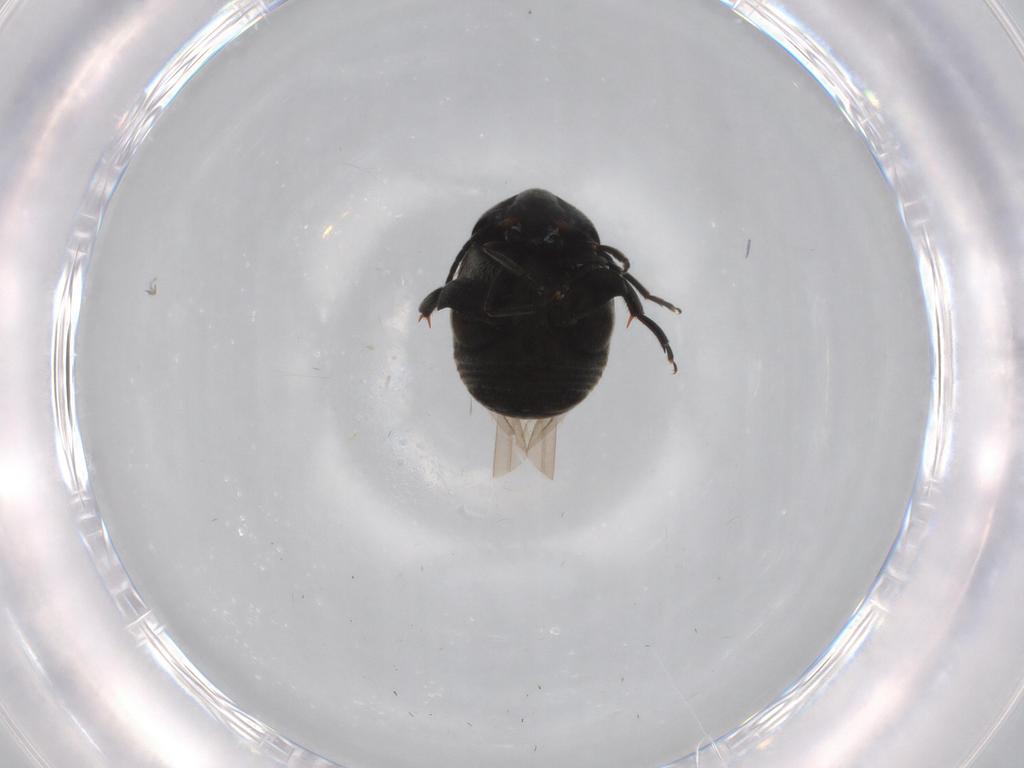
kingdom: Animalia
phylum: Arthropoda
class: Insecta
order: Coleoptera
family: Chrysomelidae
